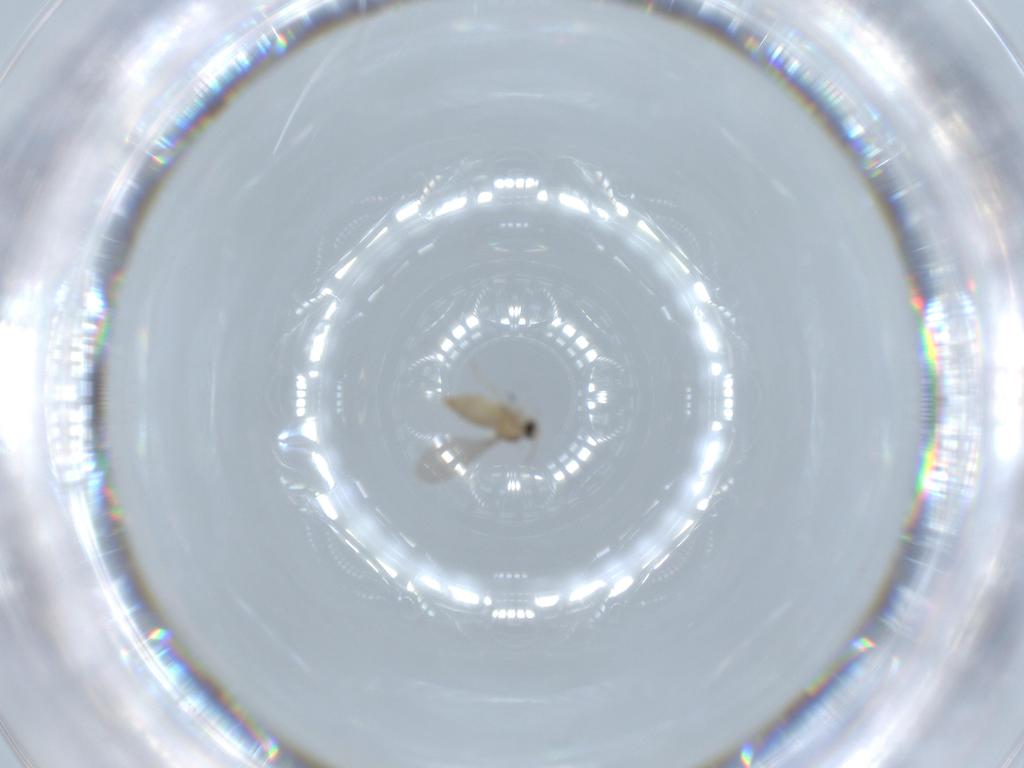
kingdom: Animalia
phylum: Arthropoda
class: Insecta
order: Diptera
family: Cecidomyiidae
